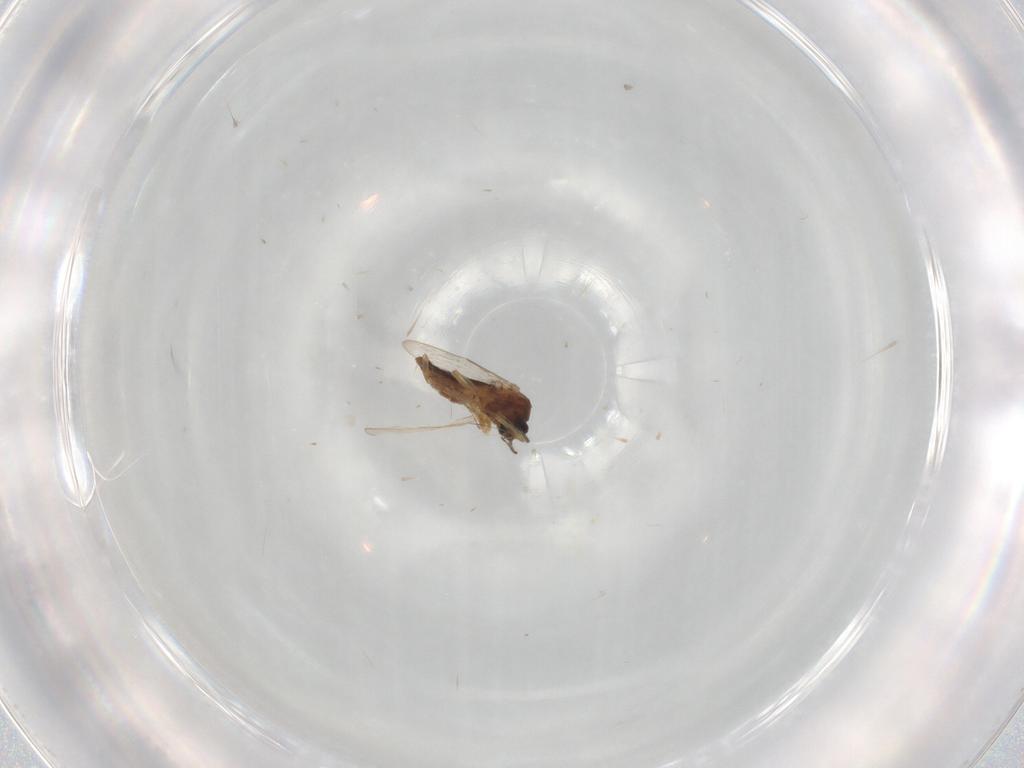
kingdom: Animalia
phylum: Arthropoda
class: Insecta
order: Diptera
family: Ceratopogonidae
